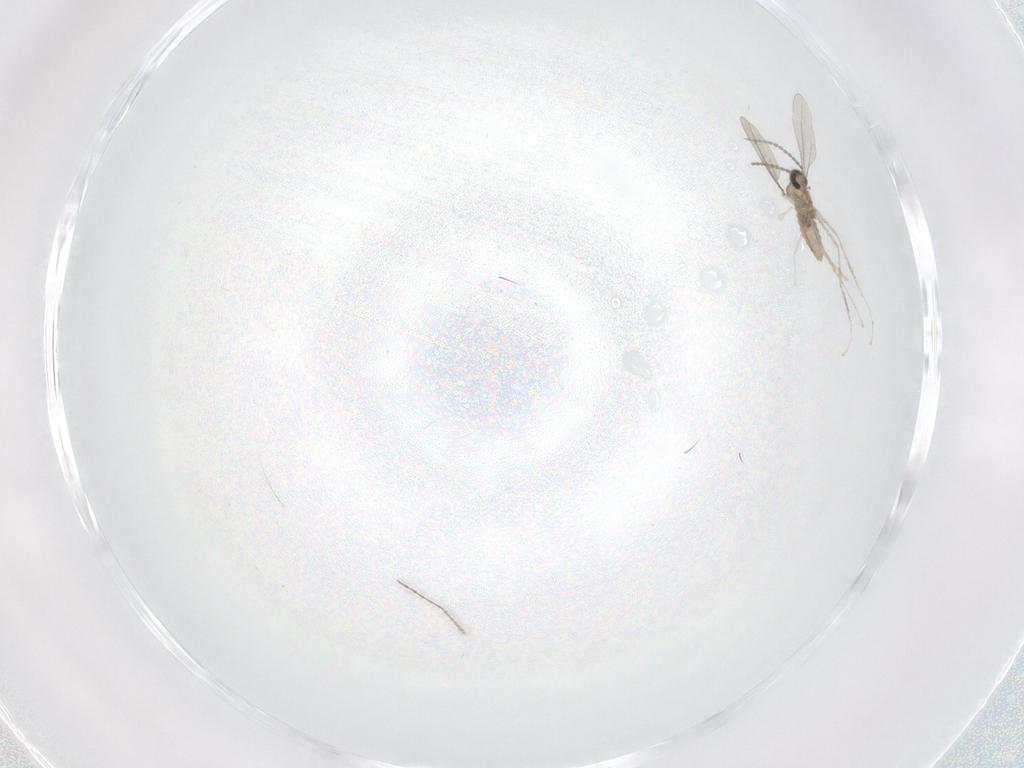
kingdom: Animalia
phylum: Arthropoda
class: Insecta
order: Diptera
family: Cecidomyiidae
